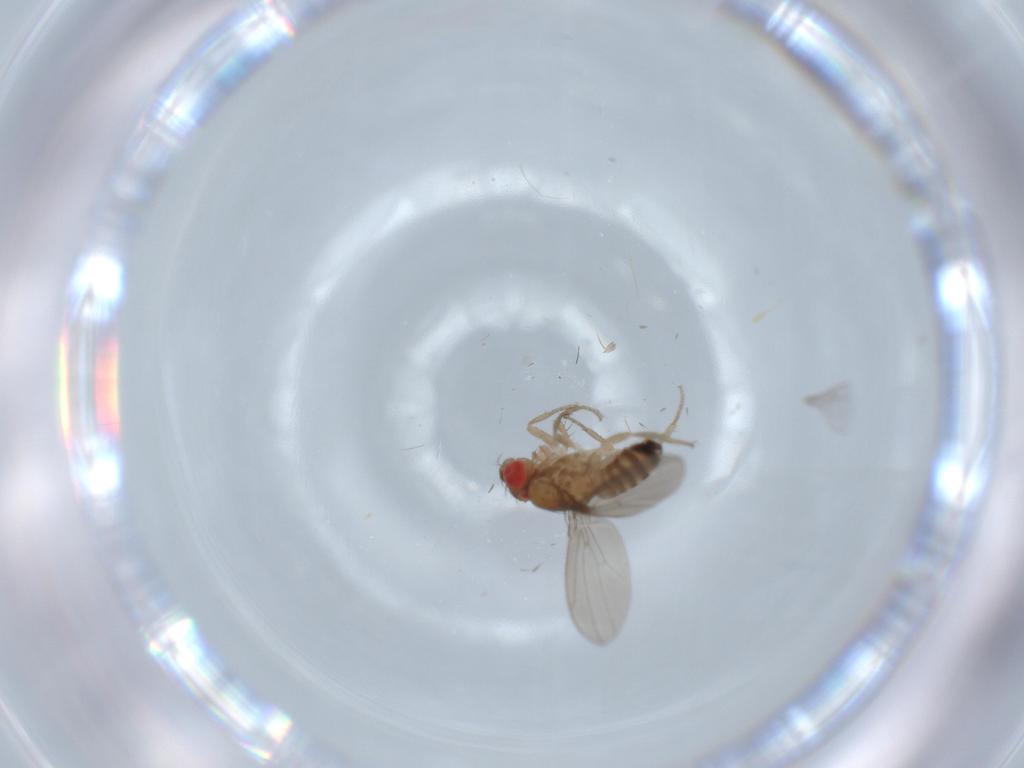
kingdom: Animalia
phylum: Arthropoda
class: Insecta
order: Diptera
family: Drosophilidae
